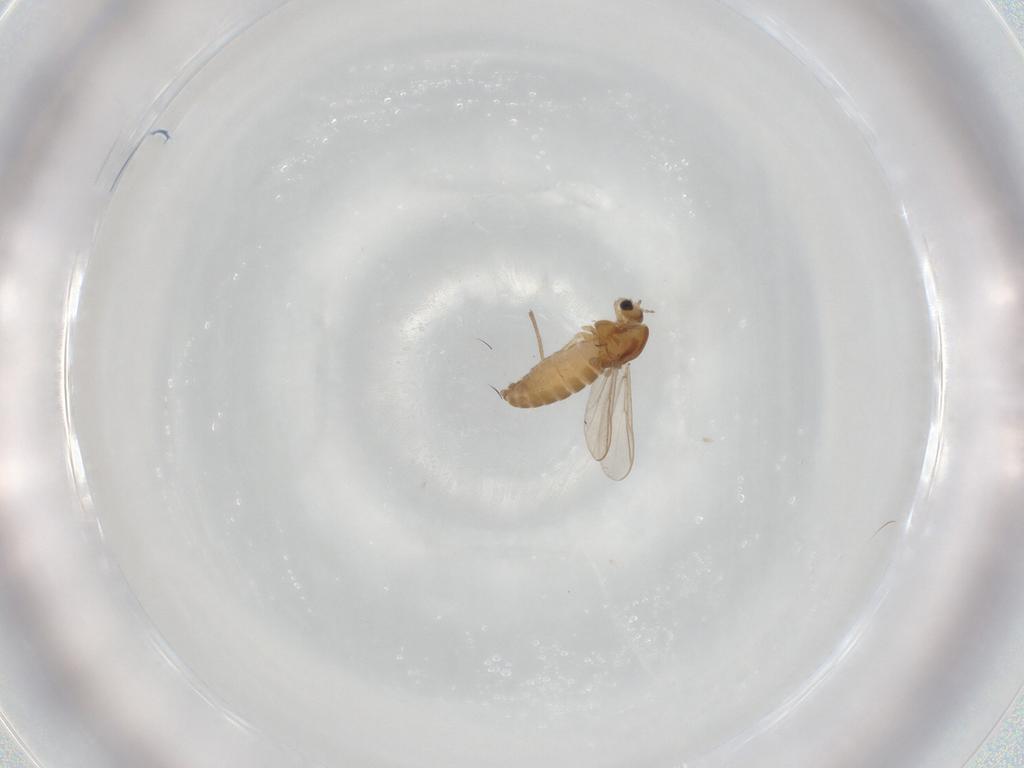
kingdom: Animalia
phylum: Arthropoda
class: Insecta
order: Diptera
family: Chironomidae
